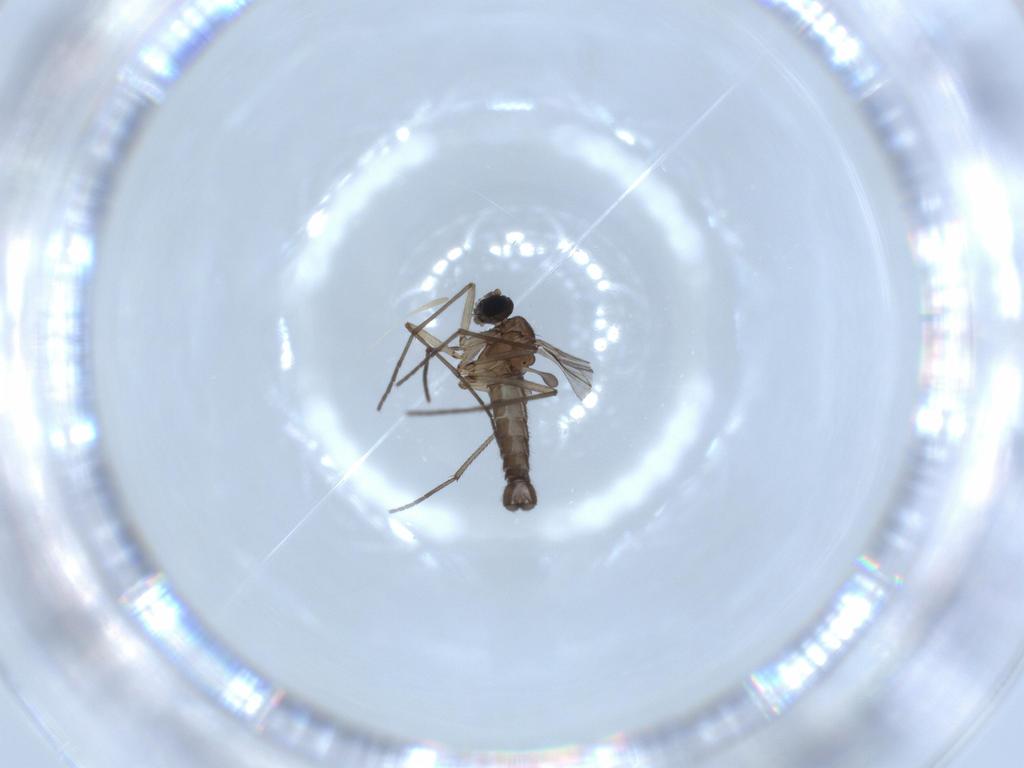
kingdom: Animalia
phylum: Arthropoda
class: Insecta
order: Diptera
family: Sciaridae
